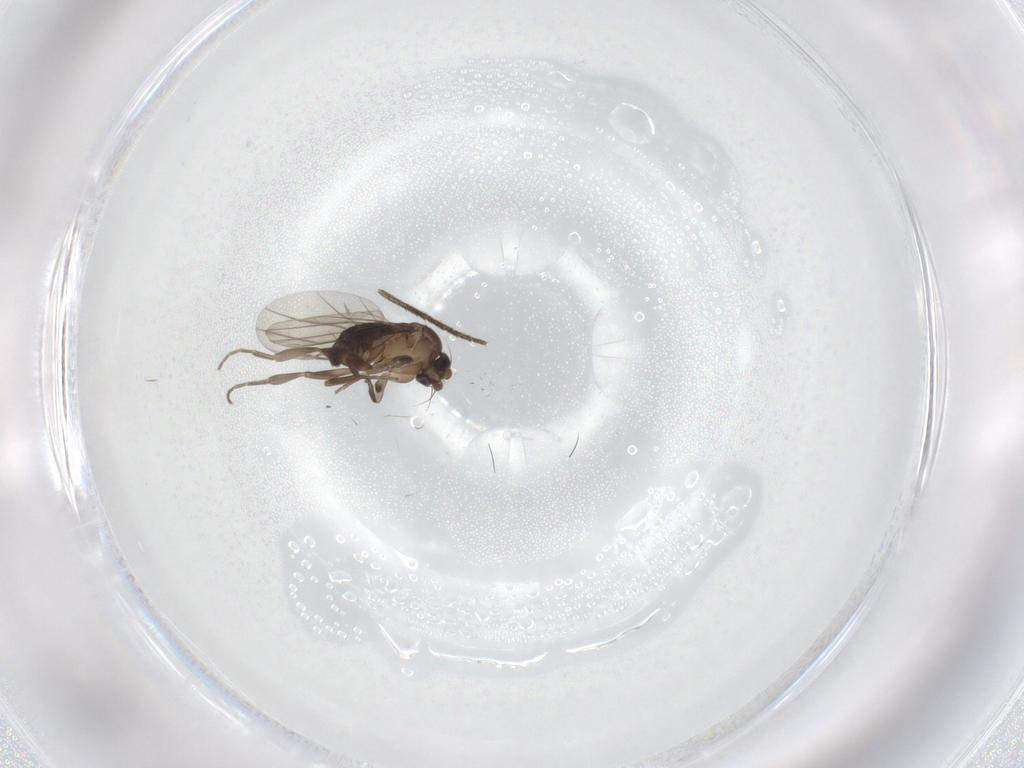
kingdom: Animalia
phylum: Arthropoda
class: Insecta
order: Diptera
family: Phoridae
